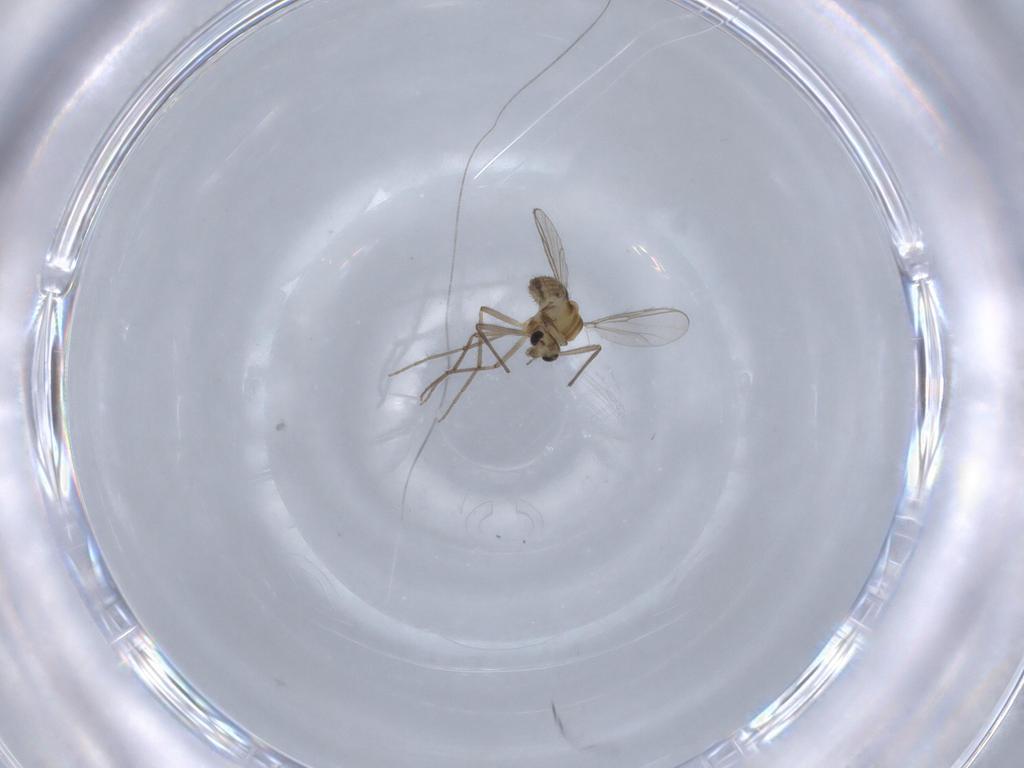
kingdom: Animalia
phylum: Arthropoda
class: Insecta
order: Diptera
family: Chironomidae
